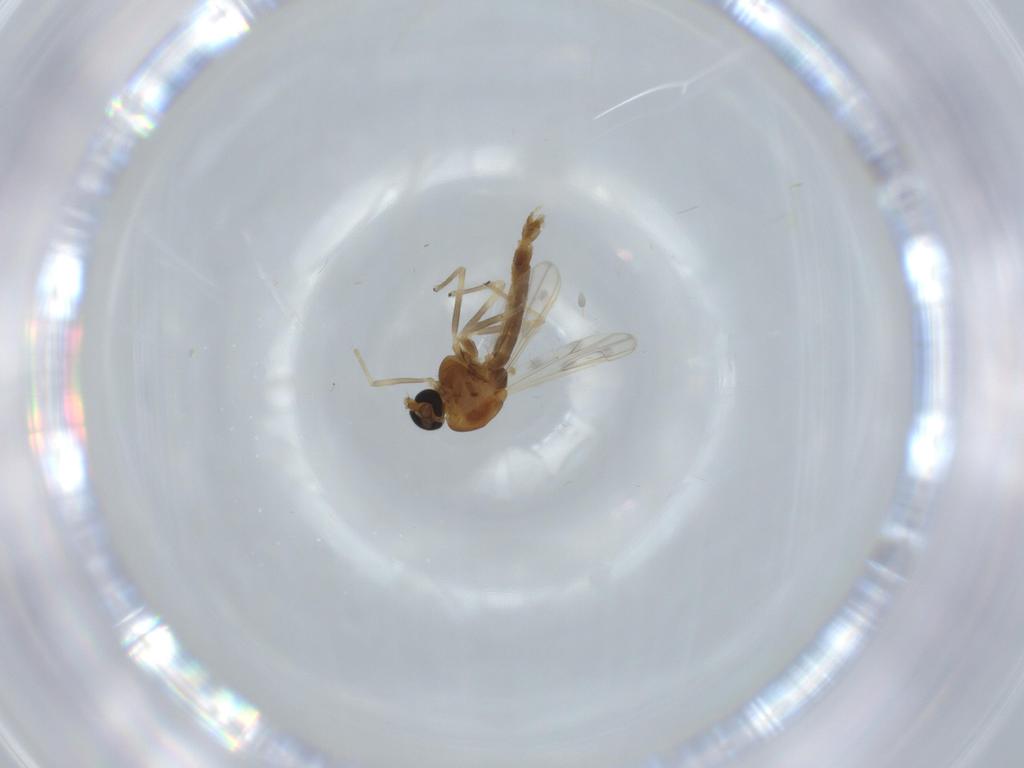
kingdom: Animalia
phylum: Arthropoda
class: Insecta
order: Diptera
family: Chironomidae
